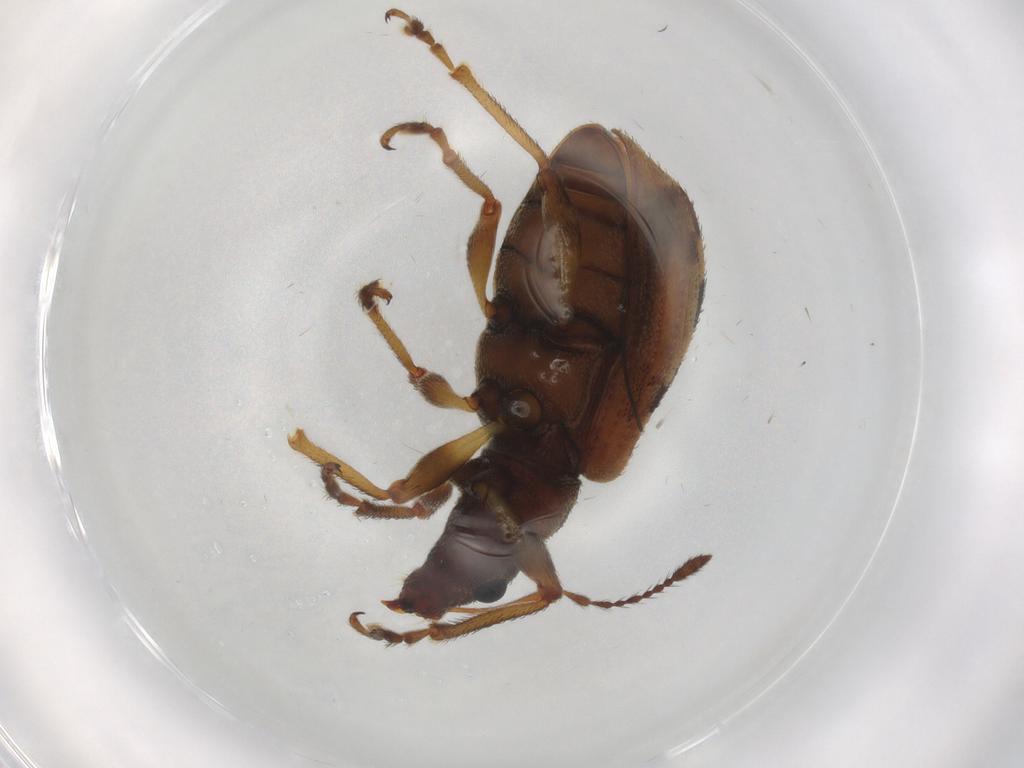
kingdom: Animalia
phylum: Arthropoda
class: Insecta
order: Coleoptera
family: Curculionidae
